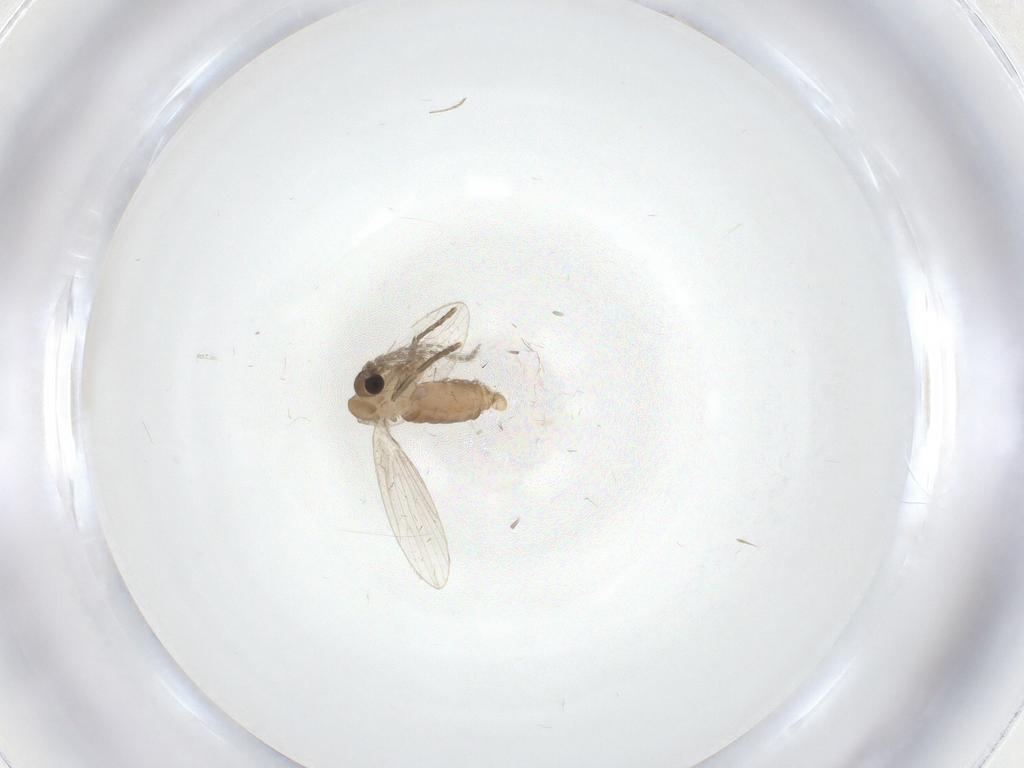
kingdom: Animalia
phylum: Arthropoda
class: Insecta
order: Diptera
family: Psychodidae
